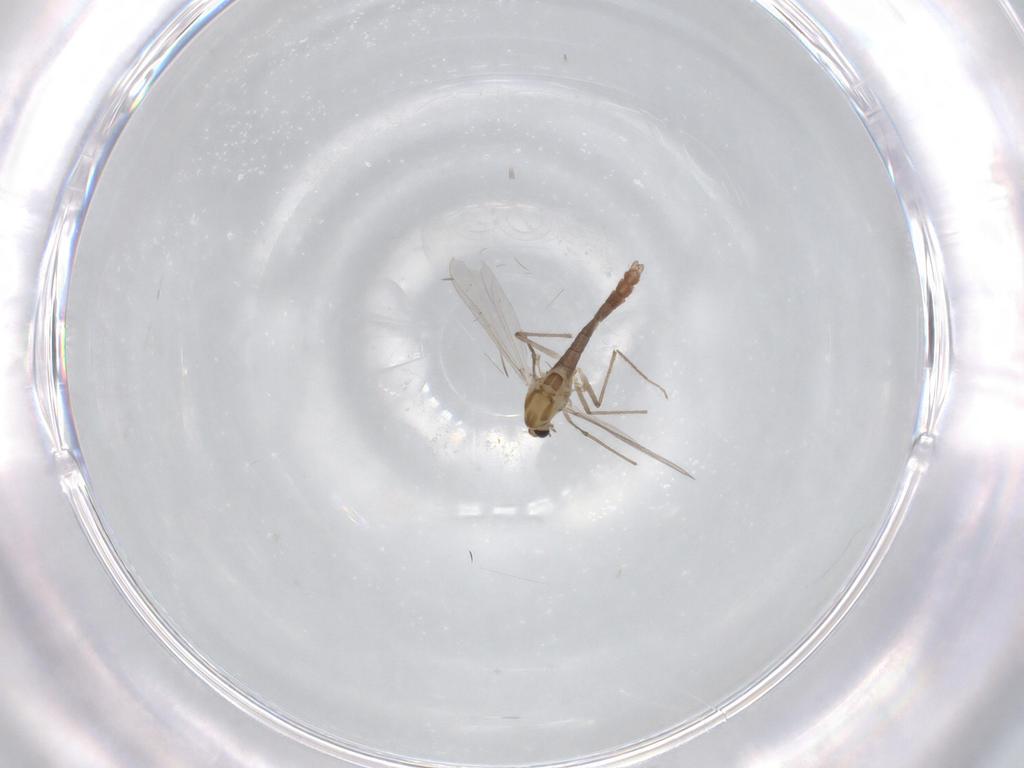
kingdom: Animalia
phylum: Arthropoda
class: Insecta
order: Diptera
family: Chironomidae
